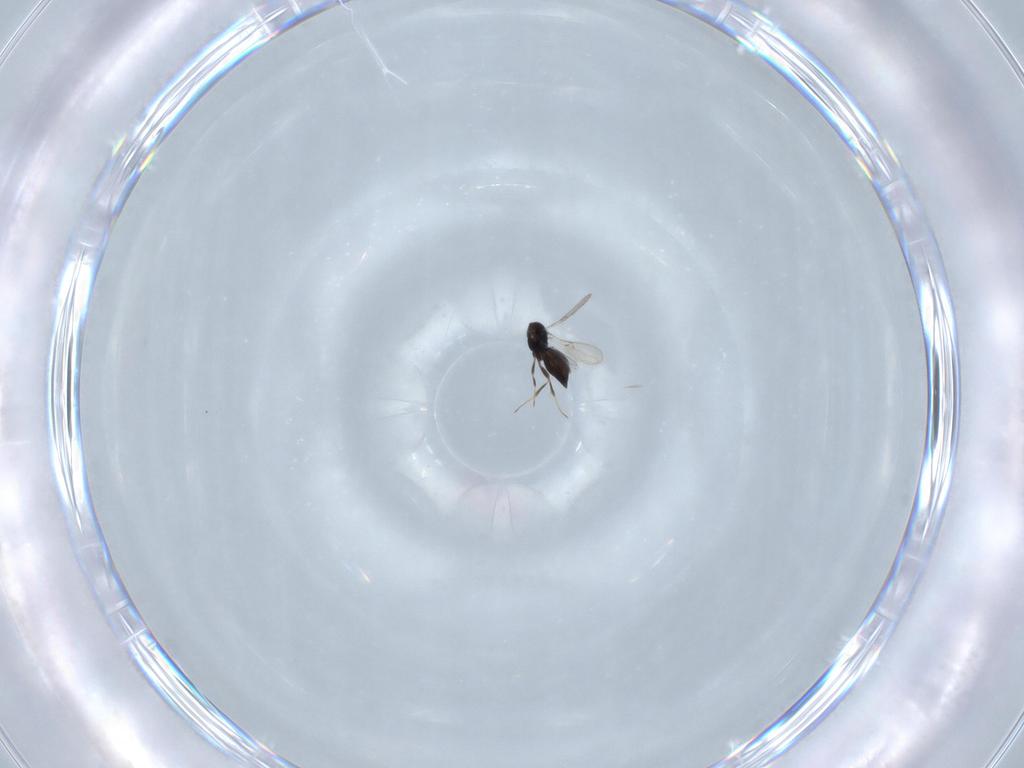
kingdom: Animalia
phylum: Arthropoda
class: Insecta
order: Hymenoptera
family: Scelionidae
